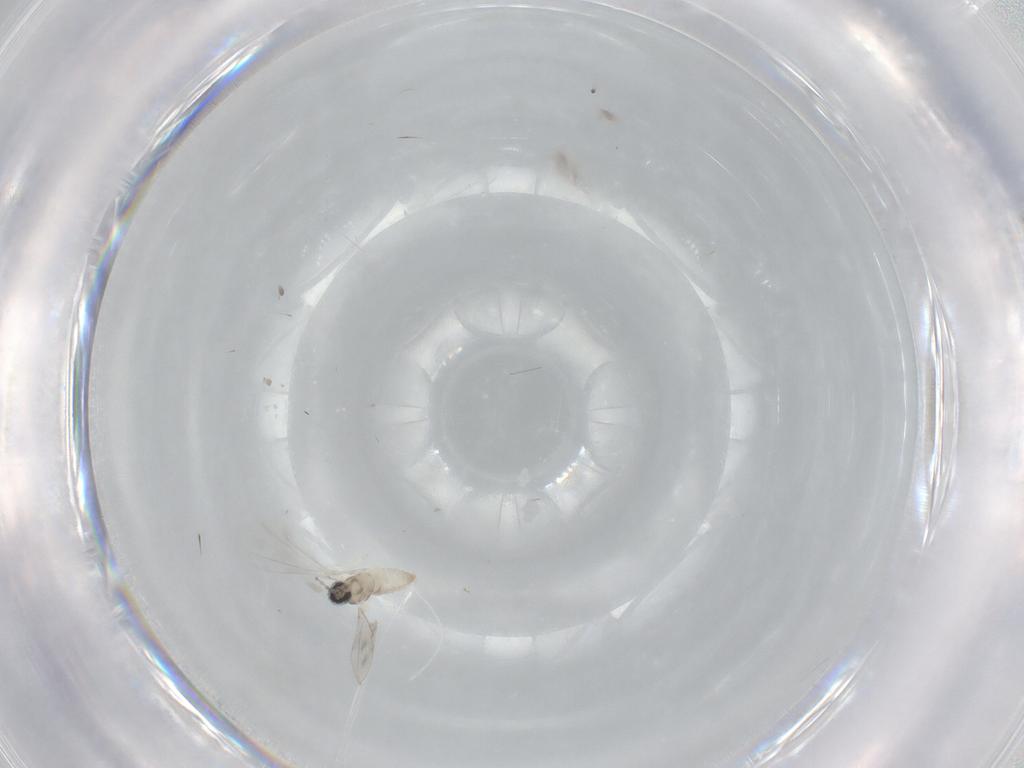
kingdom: Animalia
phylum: Arthropoda
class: Insecta
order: Diptera
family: Cecidomyiidae
